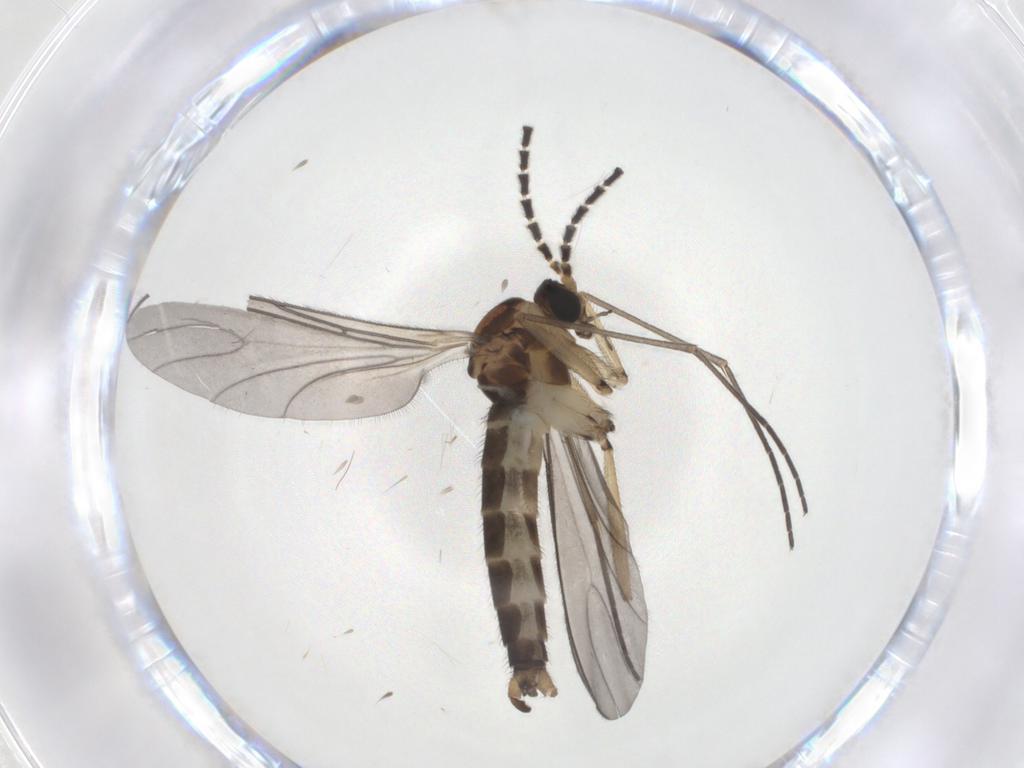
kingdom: Animalia
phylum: Arthropoda
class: Insecta
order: Diptera
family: Sciaridae
